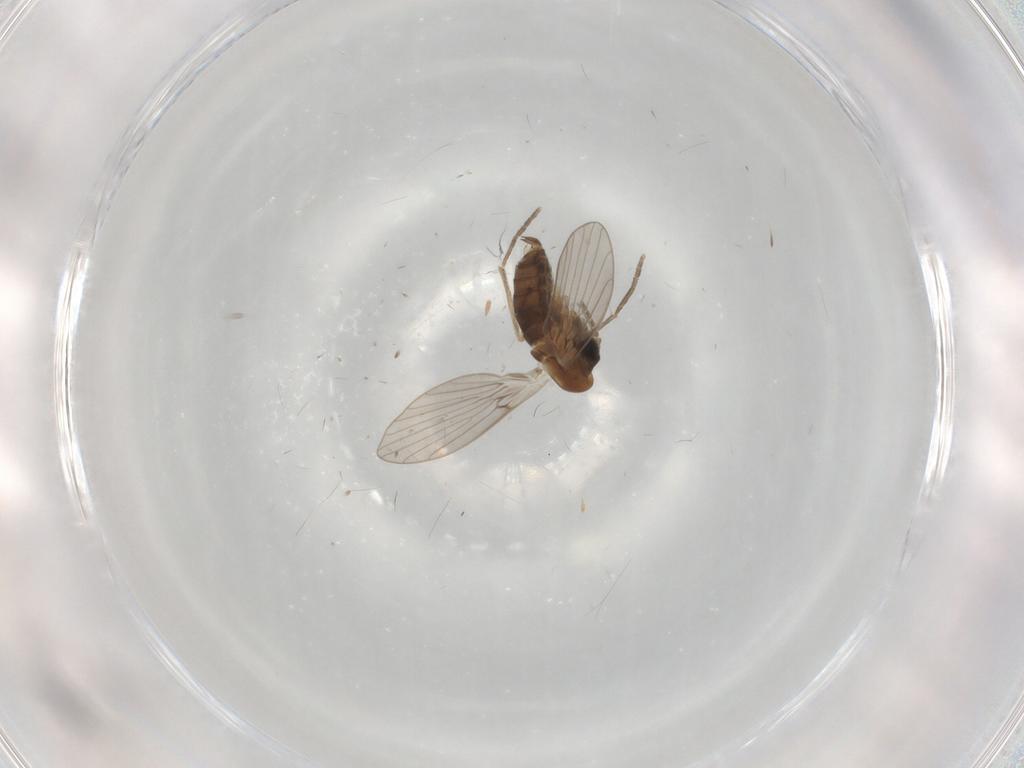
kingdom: Animalia
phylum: Arthropoda
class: Insecta
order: Diptera
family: Psychodidae
